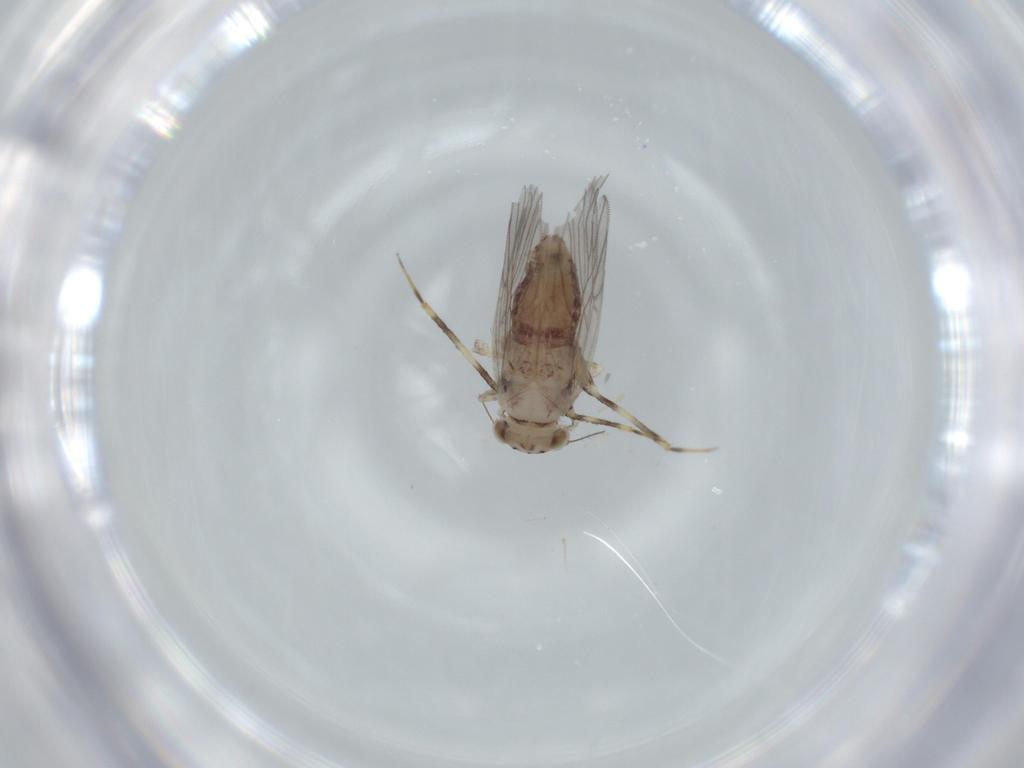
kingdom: Animalia
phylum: Arthropoda
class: Insecta
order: Psocodea
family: Lepidopsocidae
